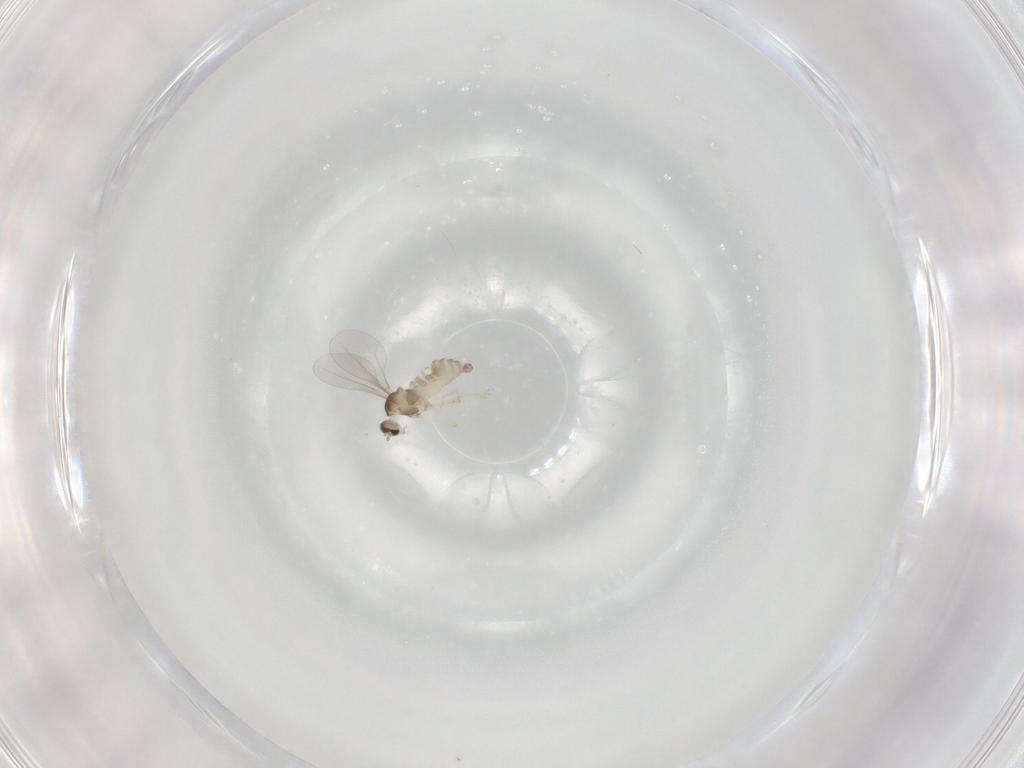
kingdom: Animalia
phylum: Arthropoda
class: Insecta
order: Diptera
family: Cecidomyiidae
